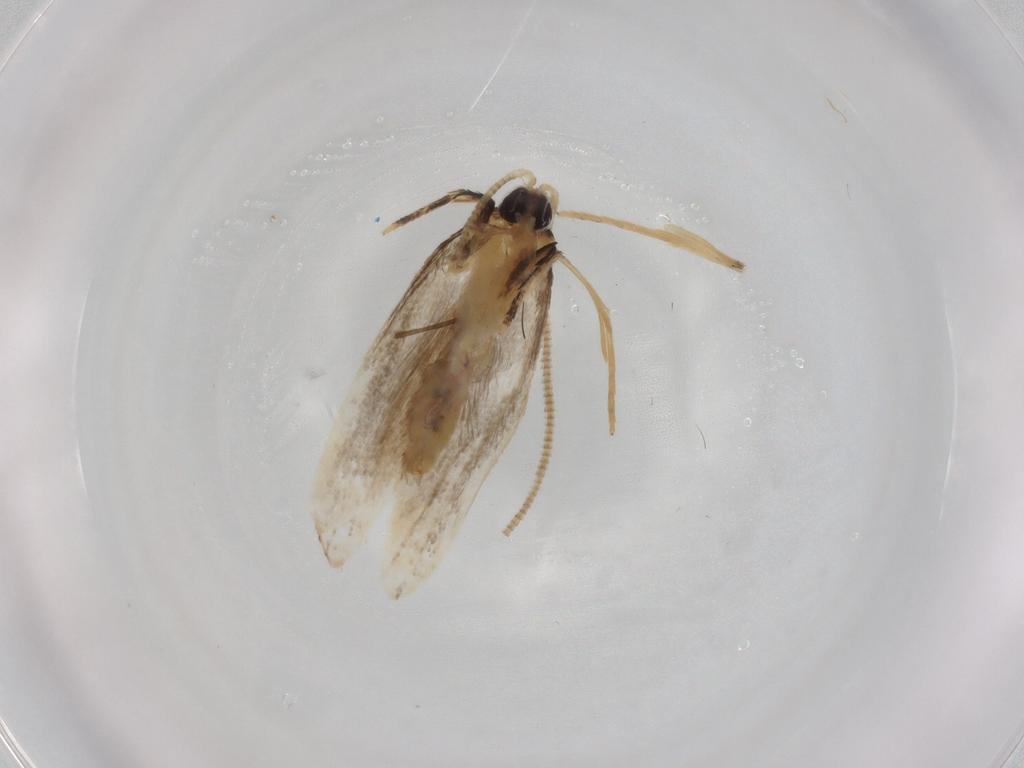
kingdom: Animalia
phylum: Arthropoda
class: Insecta
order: Lepidoptera
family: Nepticulidae
